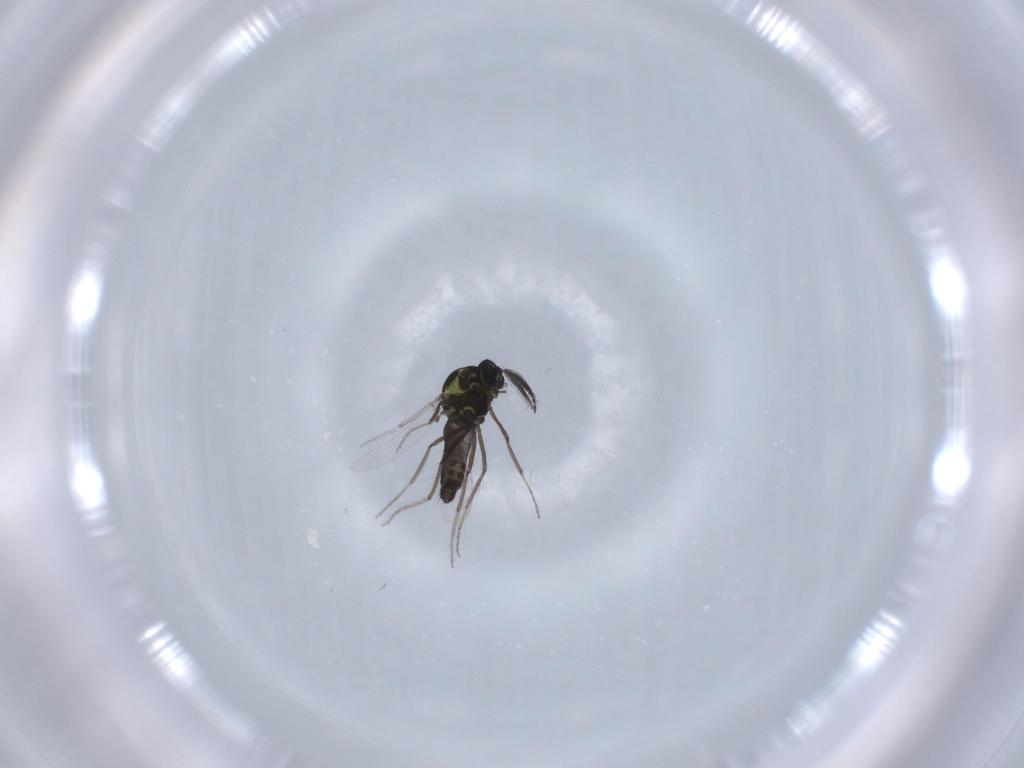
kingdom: Animalia
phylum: Arthropoda
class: Insecta
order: Diptera
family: Ceratopogonidae
